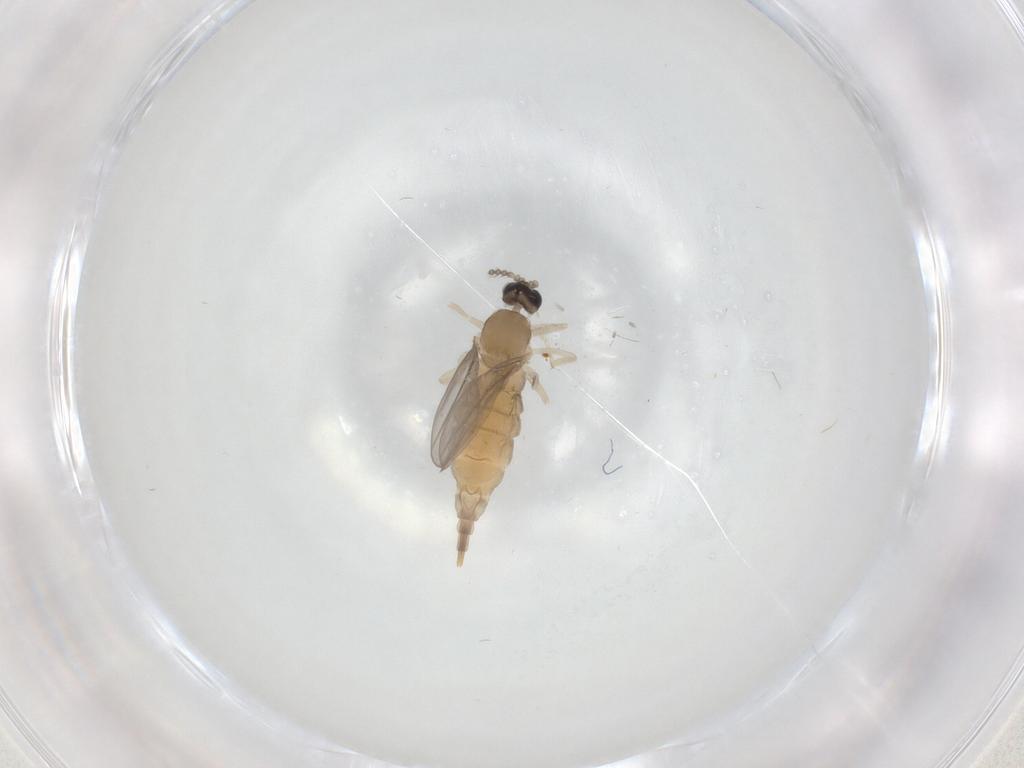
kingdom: Animalia
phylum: Arthropoda
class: Insecta
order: Diptera
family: Cecidomyiidae
